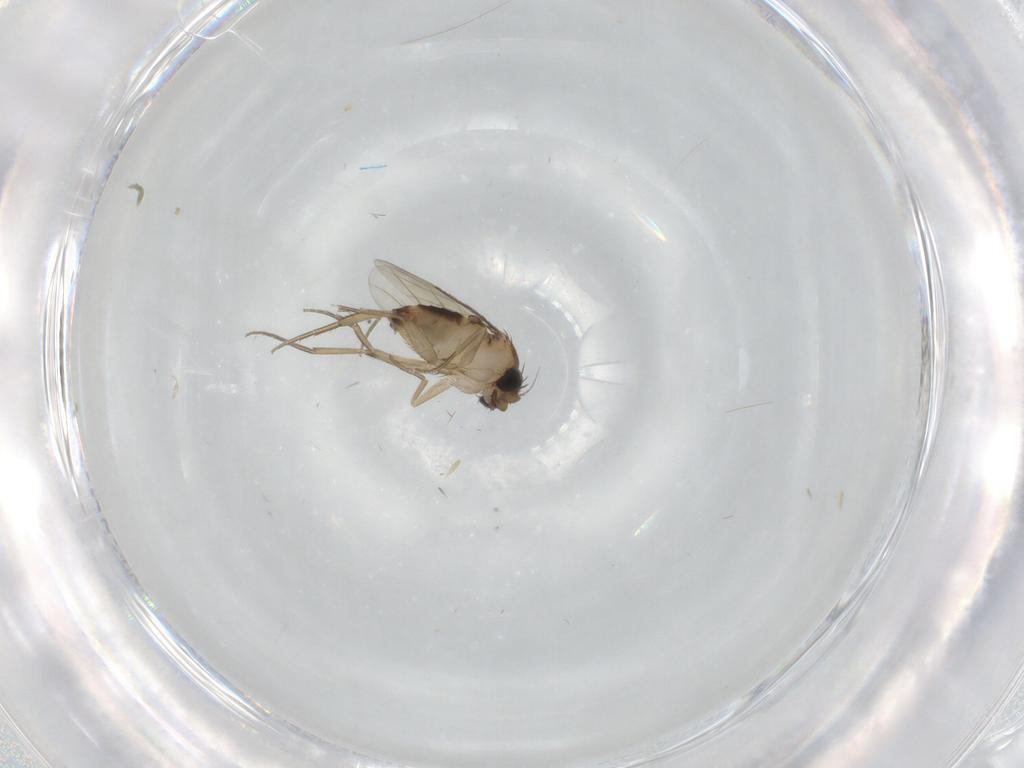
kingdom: Animalia
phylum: Arthropoda
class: Insecta
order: Diptera
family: Phoridae
